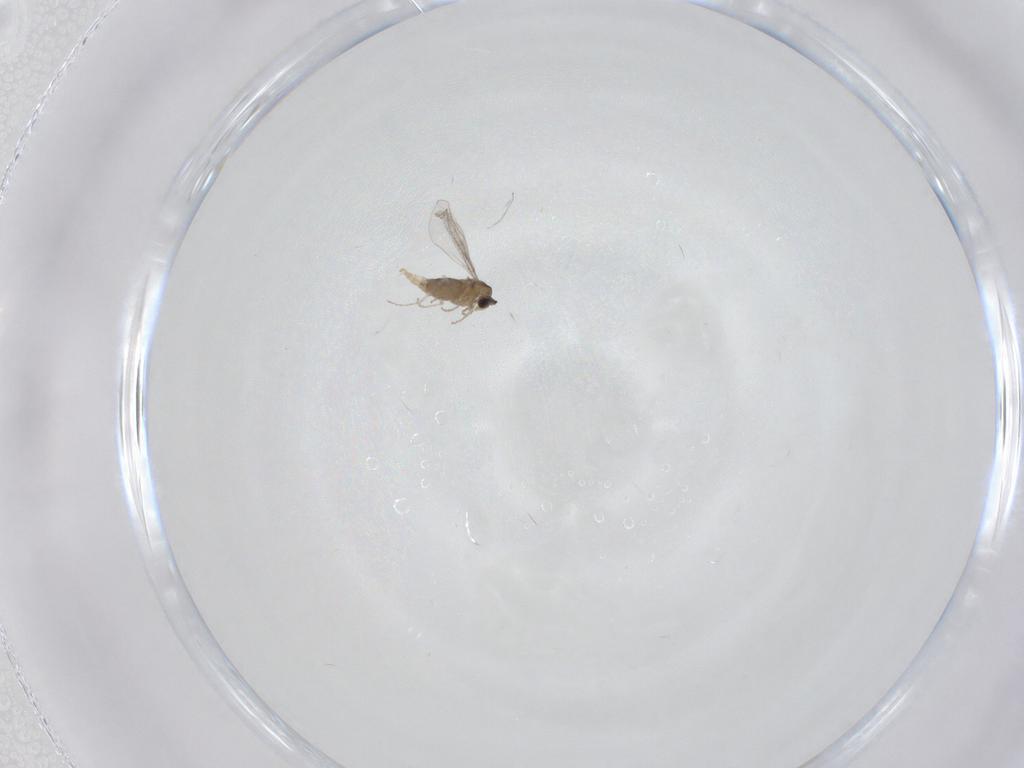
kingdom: Animalia
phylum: Arthropoda
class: Insecta
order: Diptera
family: Cecidomyiidae
